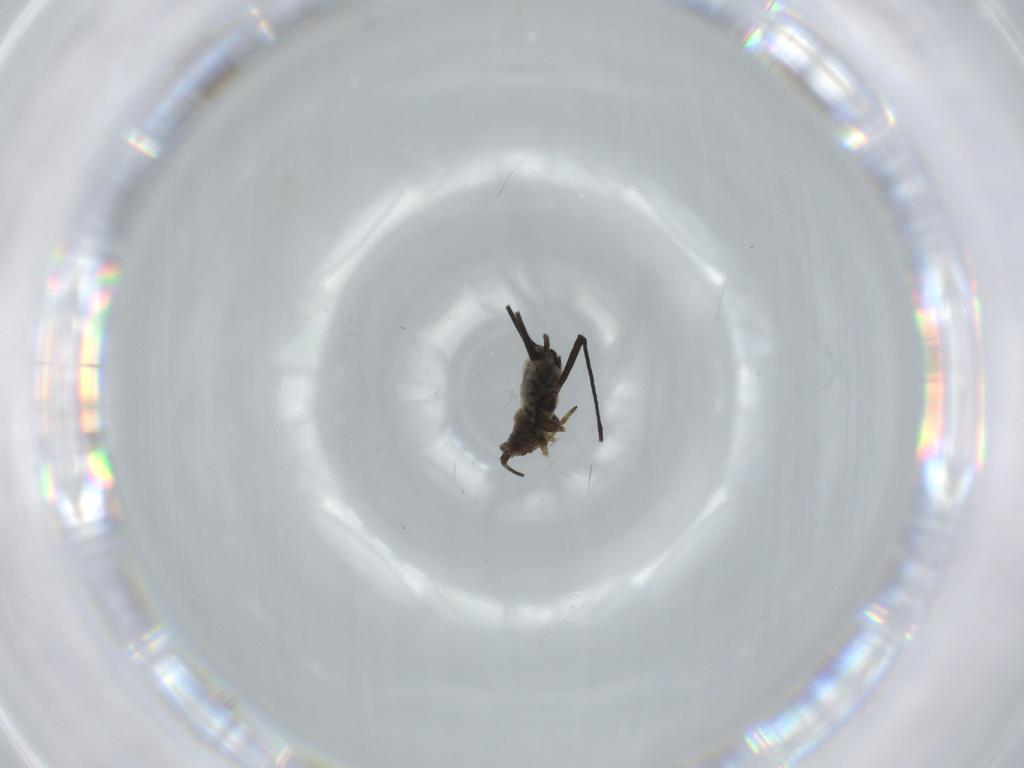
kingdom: Animalia
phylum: Arthropoda
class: Insecta
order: Hemiptera
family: Aphididae
